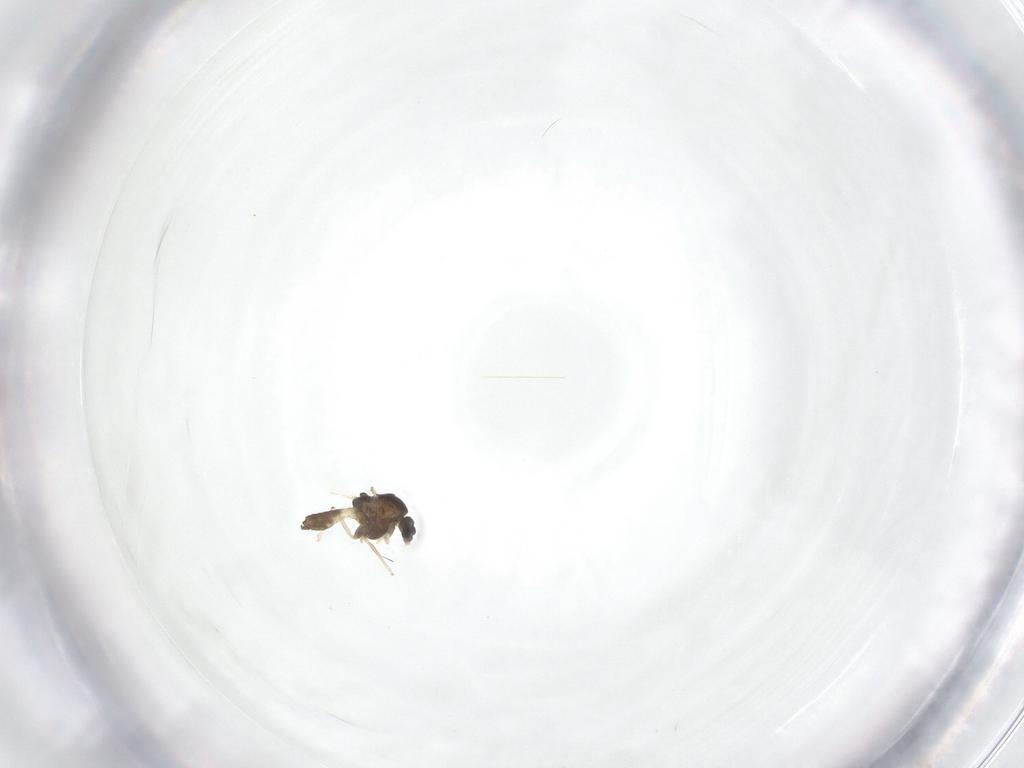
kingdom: Animalia
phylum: Arthropoda
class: Insecta
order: Diptera
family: Chironomidae
